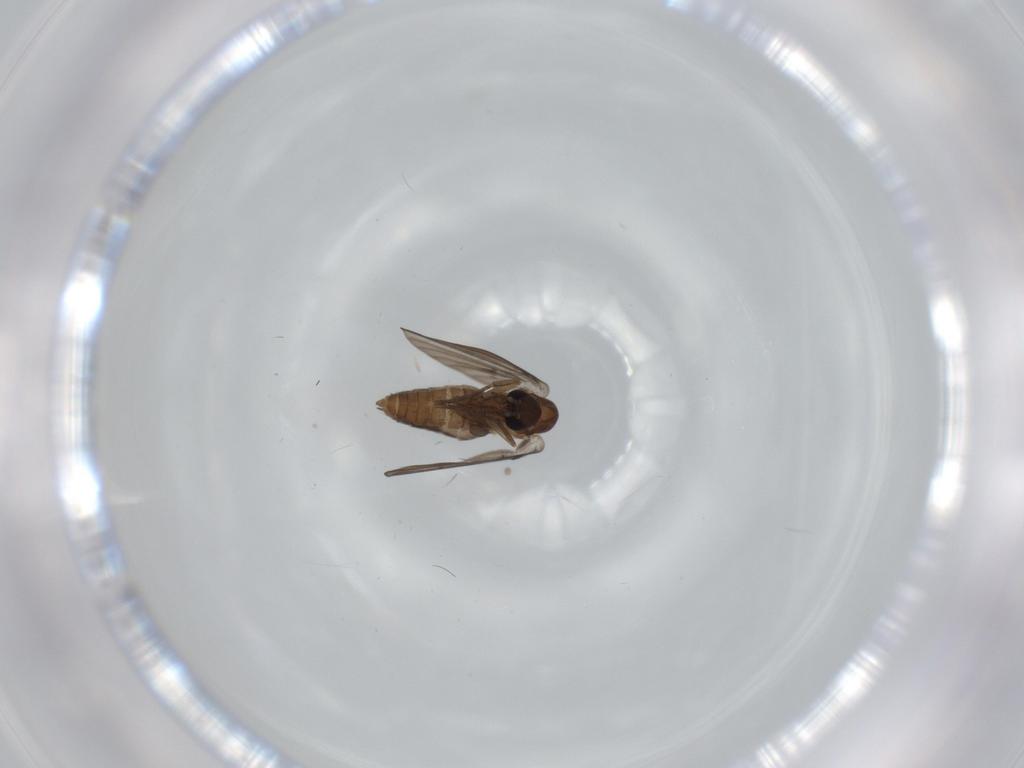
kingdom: Animalia
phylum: Arthropoda
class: Insecta
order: Diptera
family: Psychodidae
